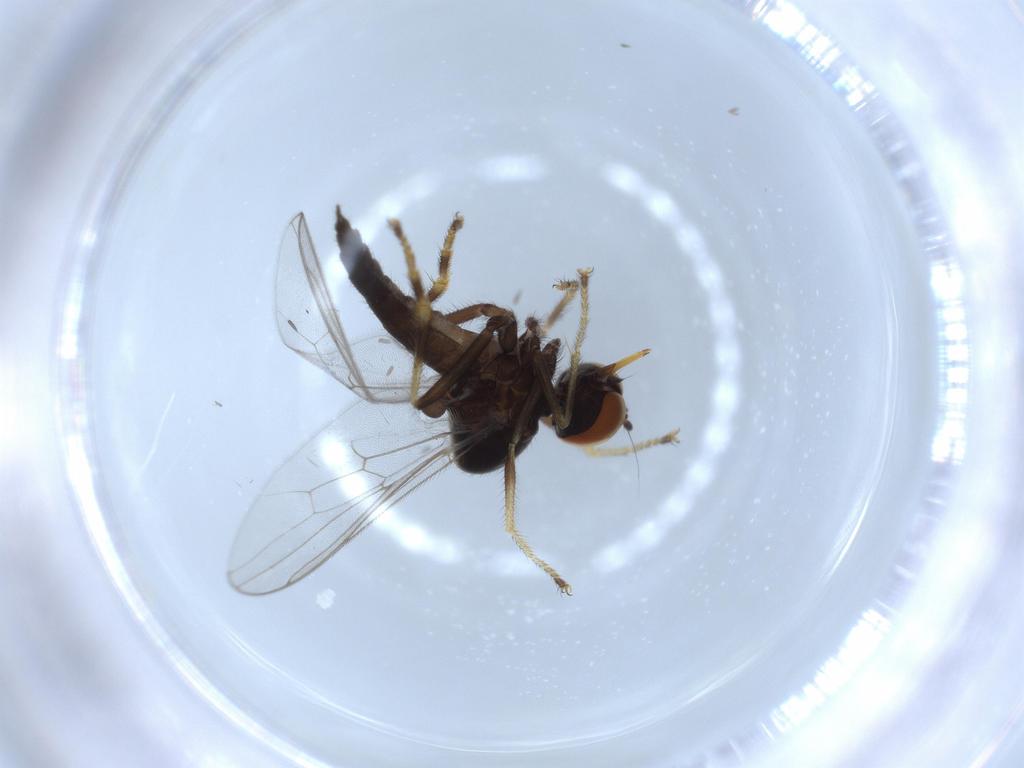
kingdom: Animalia
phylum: Arthropoda
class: Insecta
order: Diptera
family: Hybotidae
